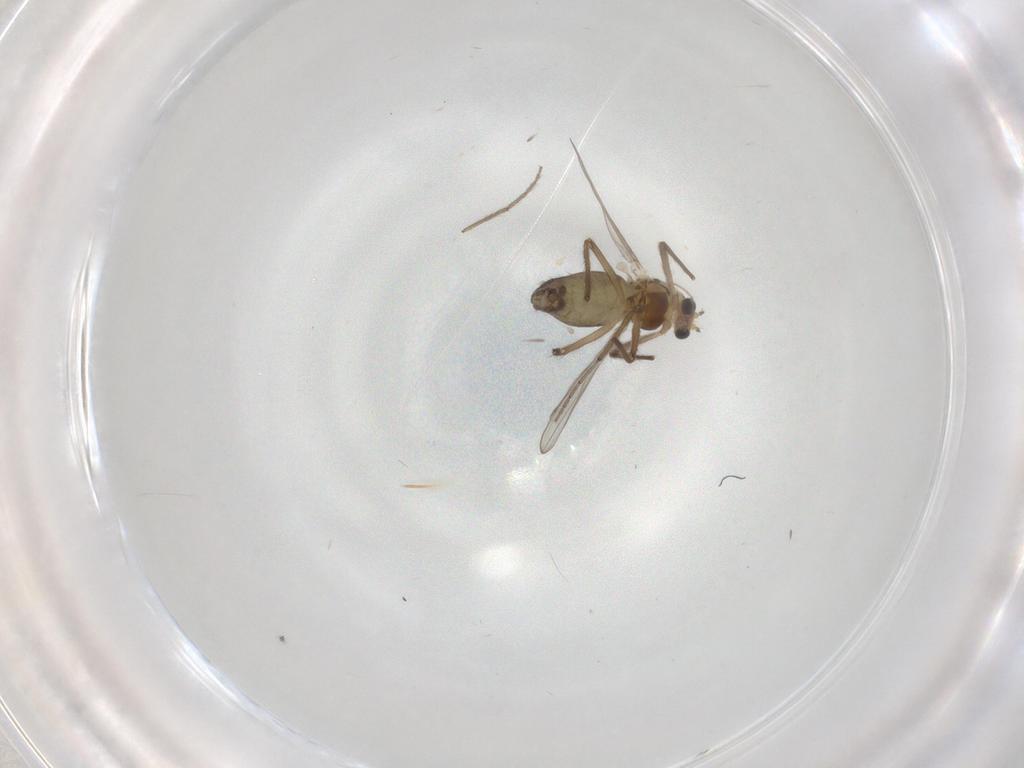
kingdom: Animalia
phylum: Arthropoda
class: Insecta
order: Diptera
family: Chironomidae
